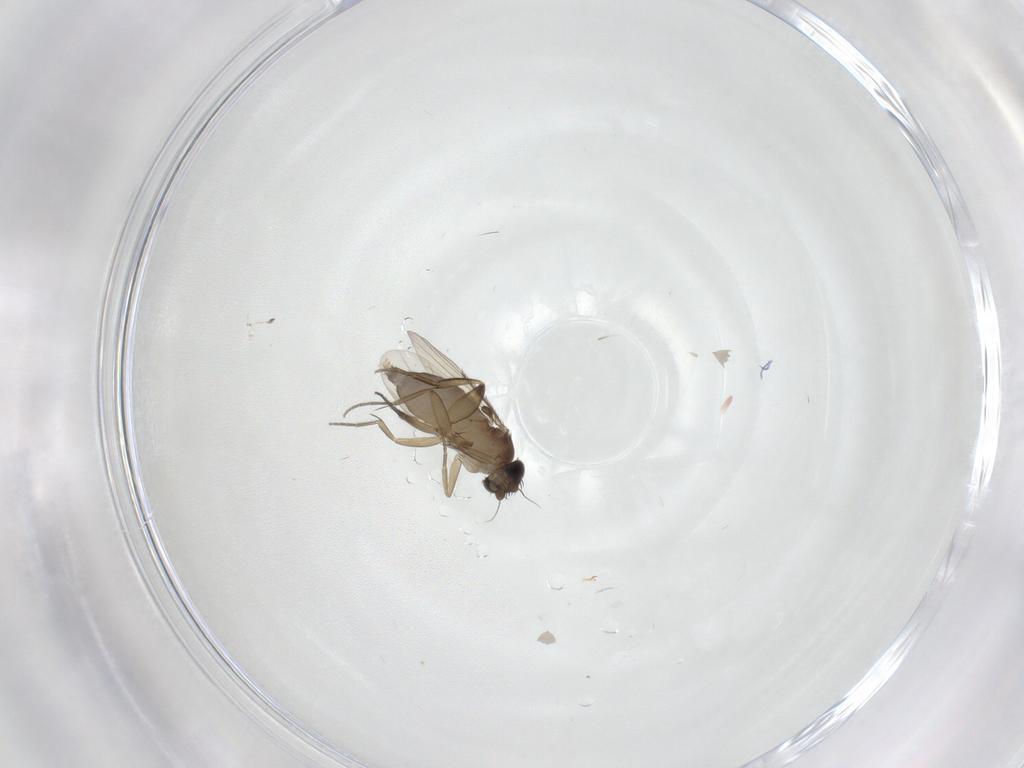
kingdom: Animalia
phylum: Arthropoda
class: Insecta
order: Diptera
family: Phoridae
